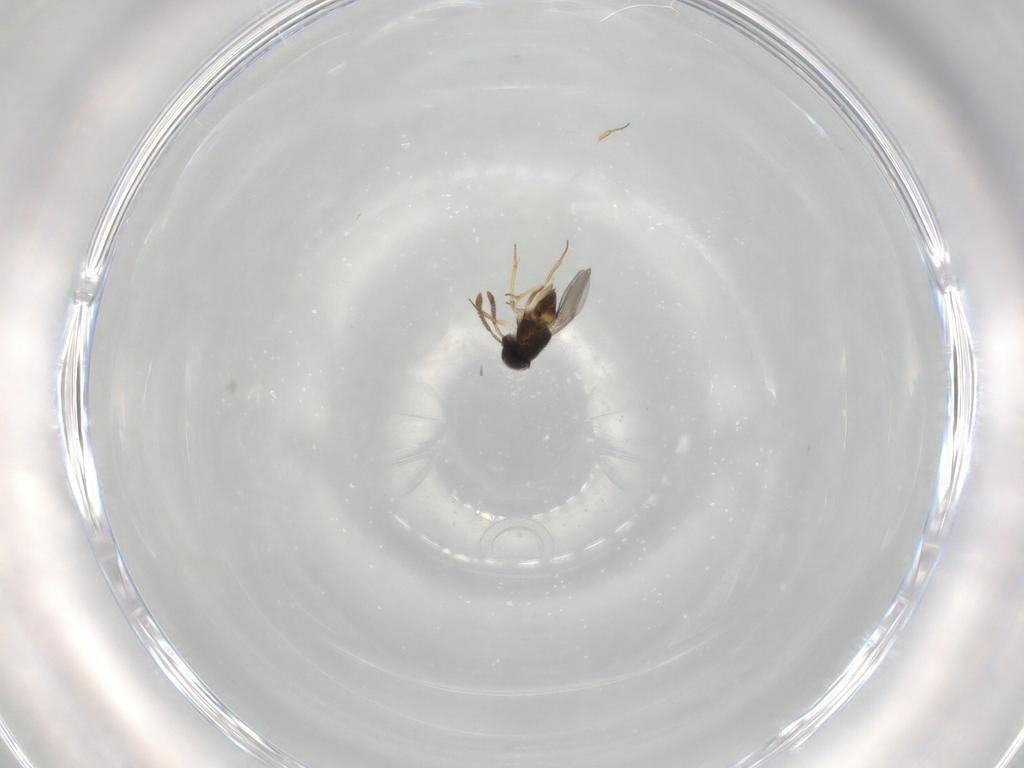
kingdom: Animalia
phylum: Arthropoda
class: Insecta
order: Hymenoptera
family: Encyrtidae
